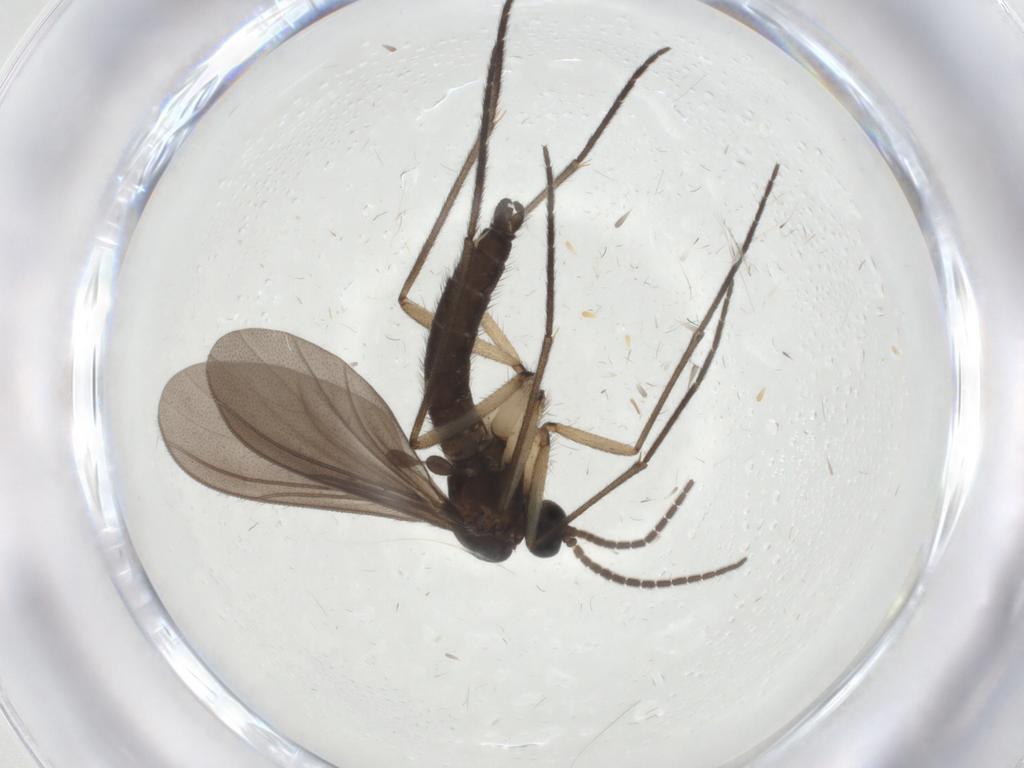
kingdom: Animalia
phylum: Arthropoda
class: Insecta
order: Diptera
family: Sciaridae
